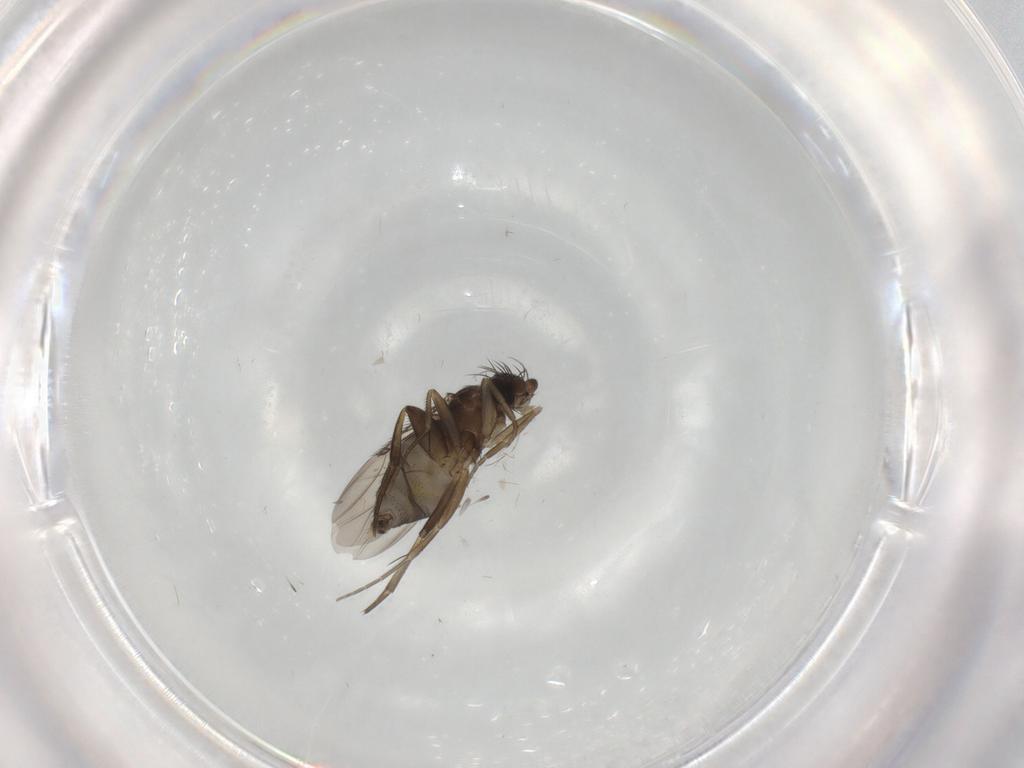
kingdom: Animalia
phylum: Arthropoda
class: Insecta
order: Diptera
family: Phoridae
